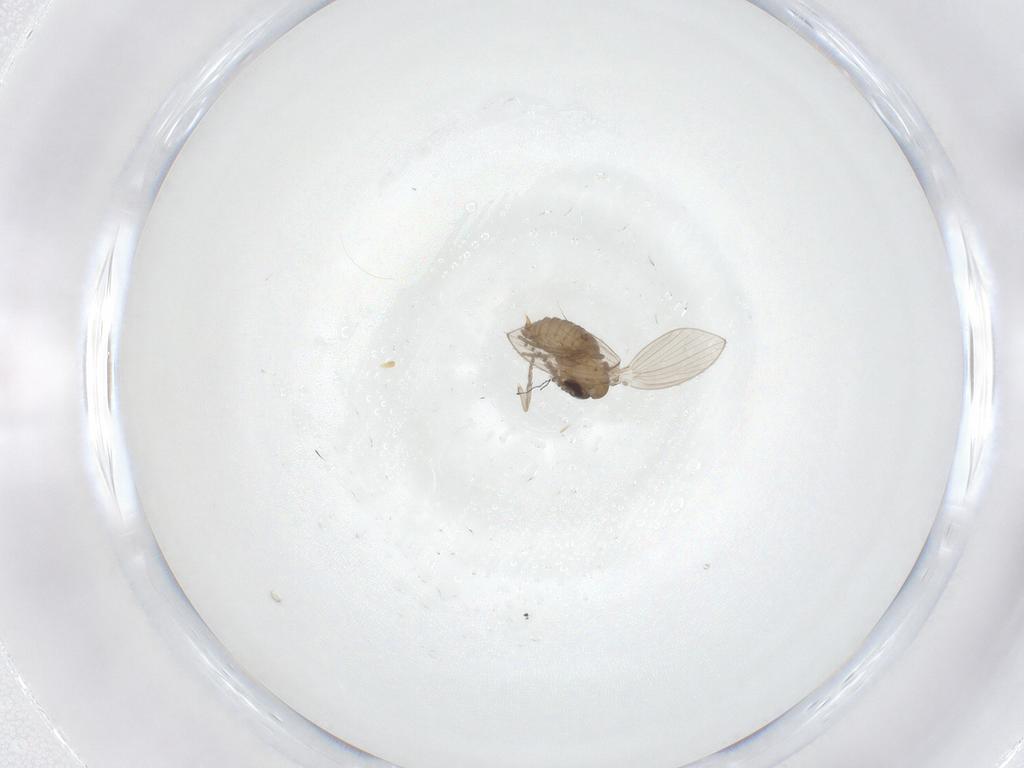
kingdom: Animalia
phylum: Arthropoda
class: Insecta
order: Diptera
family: Psychodidae
